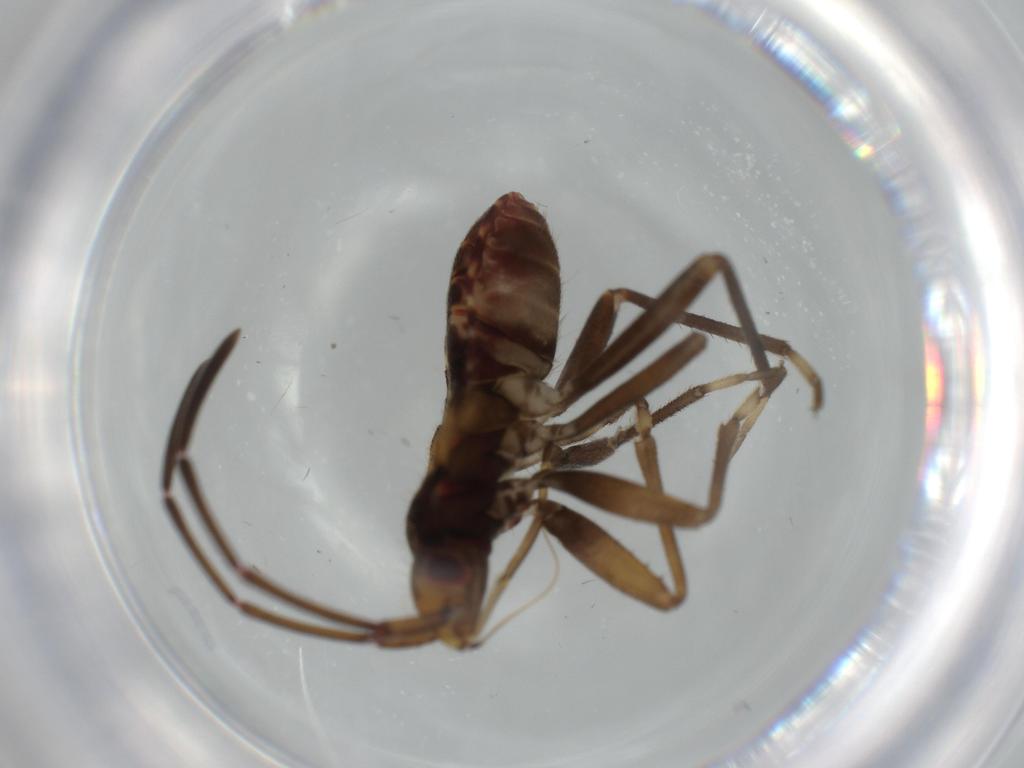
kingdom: Animalia
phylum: Arthropoda
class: Insecta
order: Hemiptera
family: Rhyparochromidae
